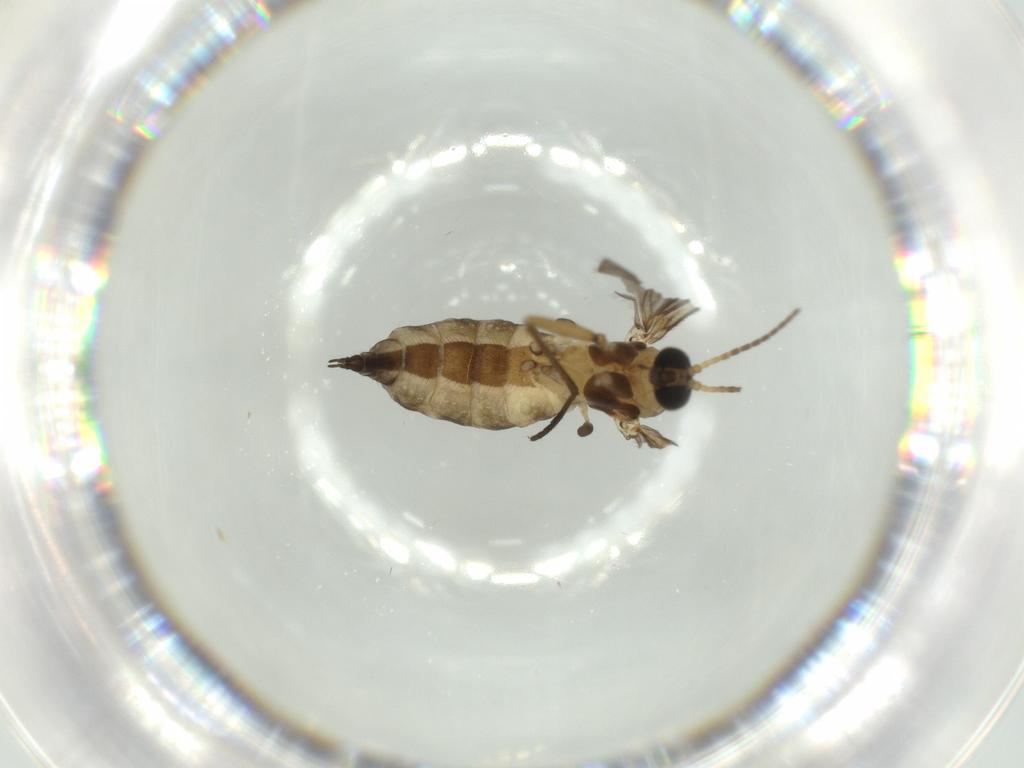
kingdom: Animalia
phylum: Arthropoda
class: Insecta
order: Diptera
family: Sciaridae
